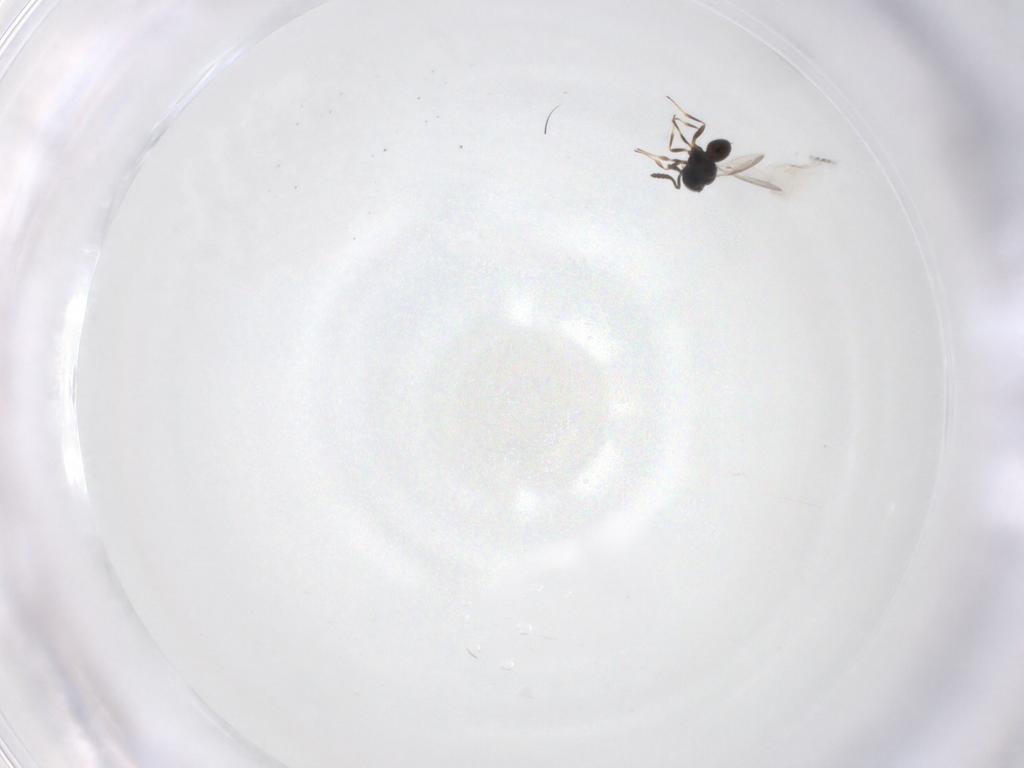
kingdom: Animalia
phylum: Arthropoda
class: Insecta
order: Hymenoptera
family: Scelionidae
